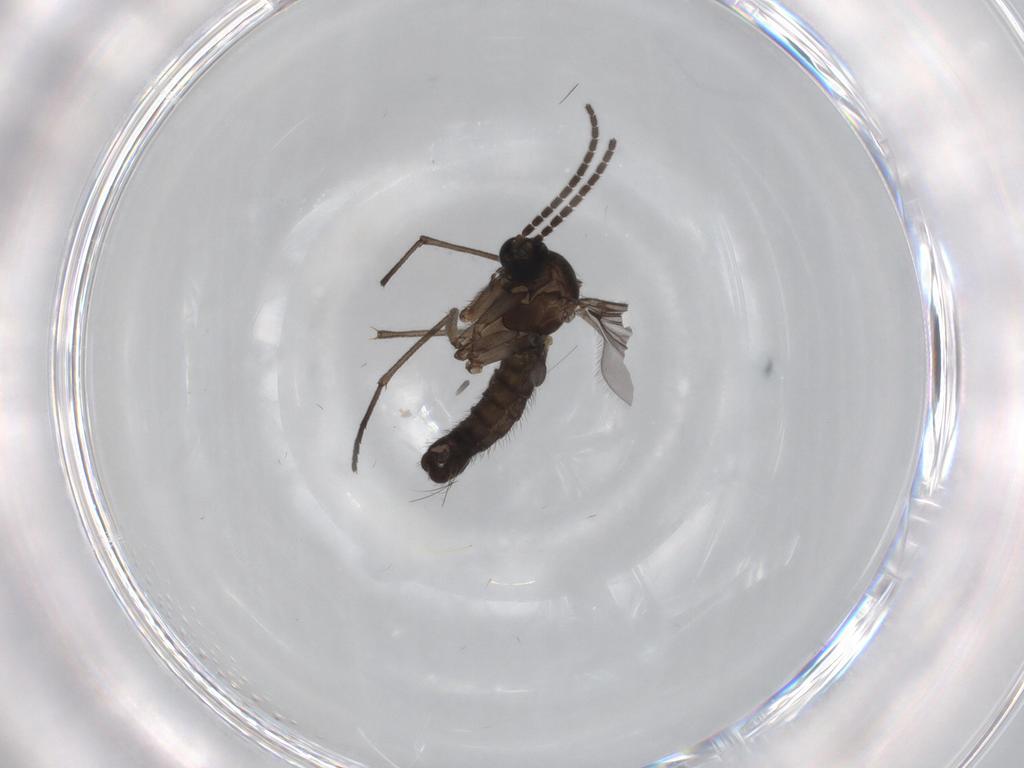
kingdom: Animalia
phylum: Arthropoda
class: Insecta
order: Diptera
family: Sciaridae
